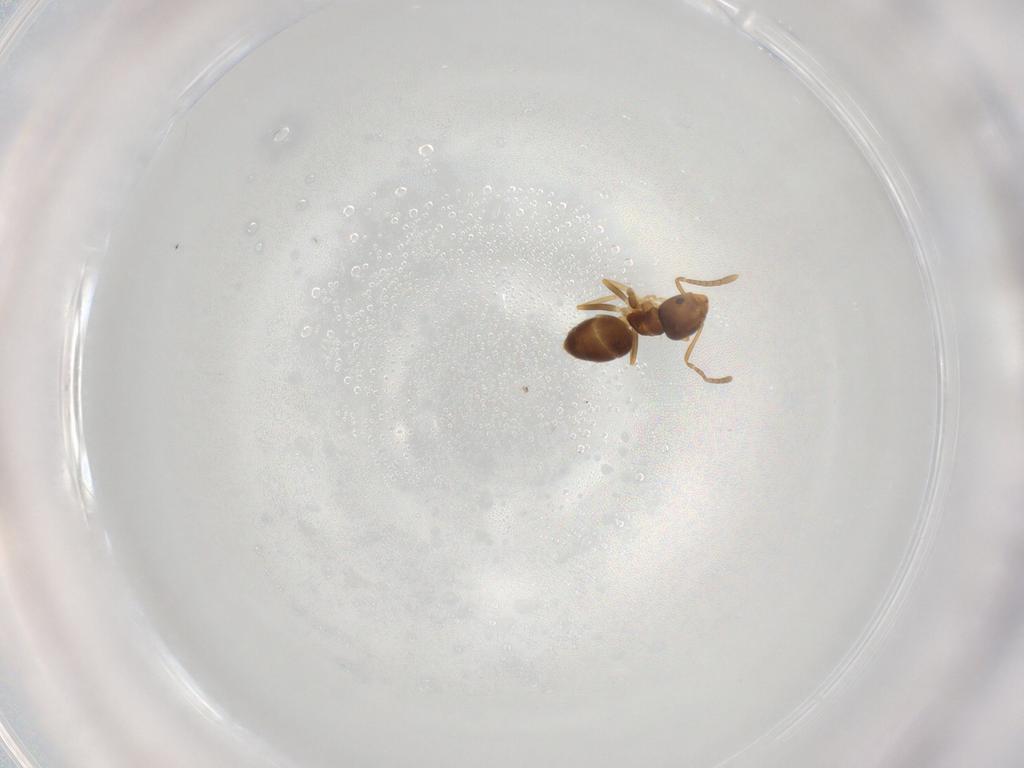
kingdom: Animalia
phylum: Arthropoda
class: Insecta
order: Hymenoptera
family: Formicidae
